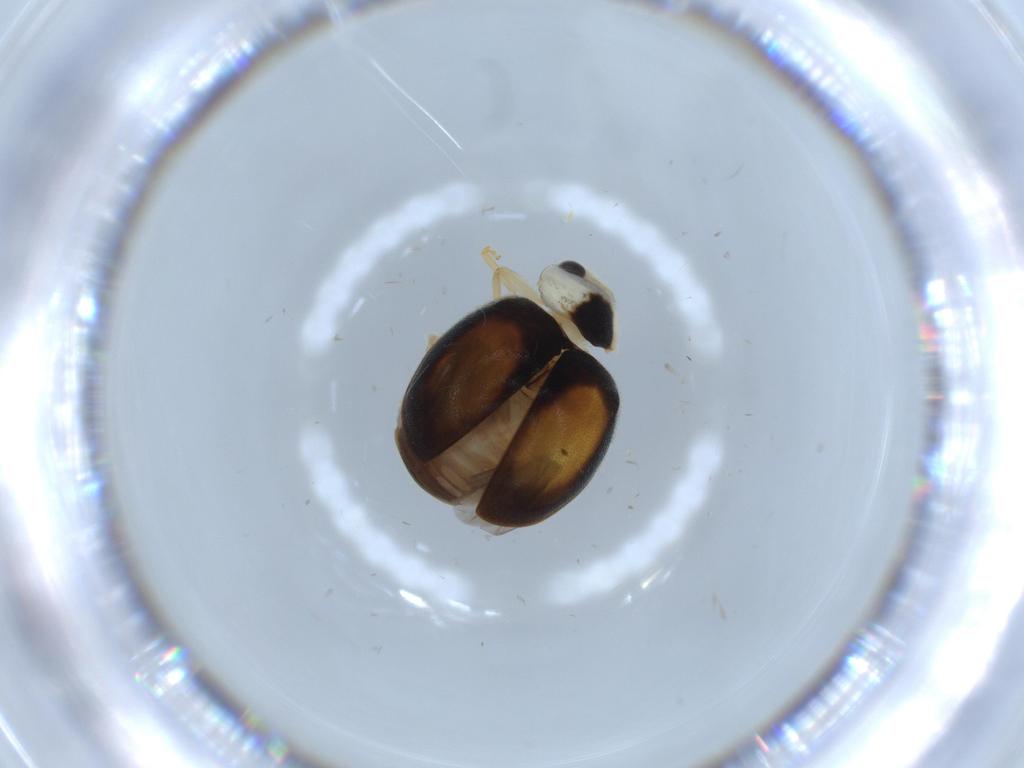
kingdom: Animalia
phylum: Arthropoda
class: Insecta
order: Coleoptera
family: Coccinellidae
